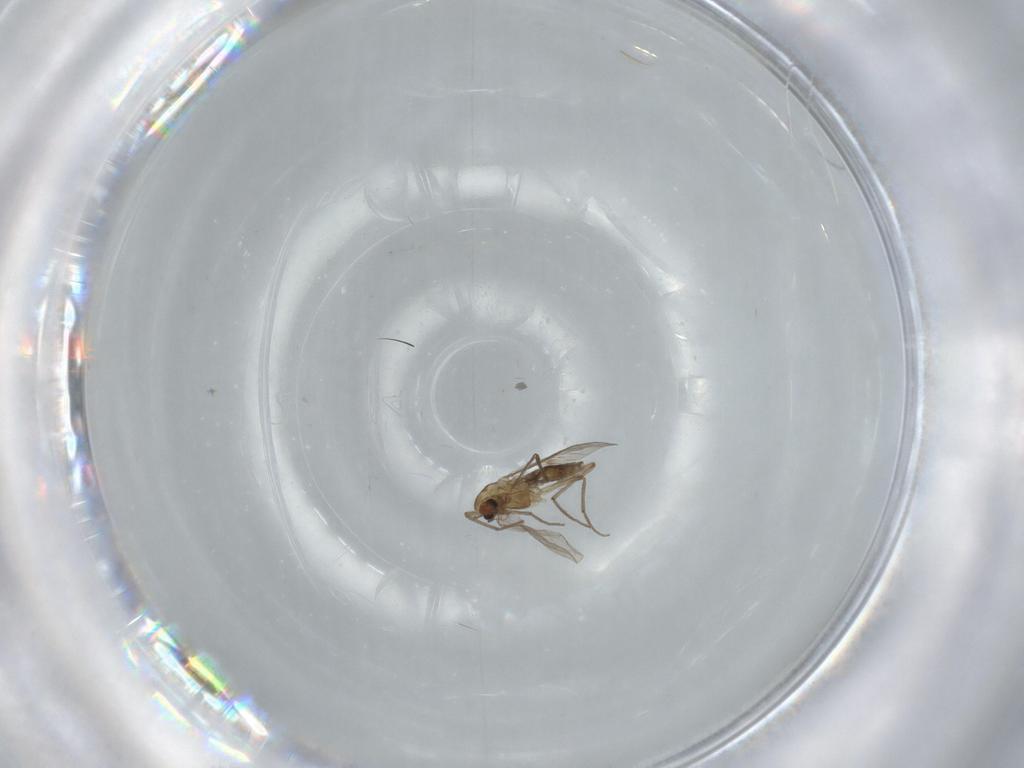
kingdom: Animalia
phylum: Arthropoda
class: Insecta
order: Diptera
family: Chironomidae
